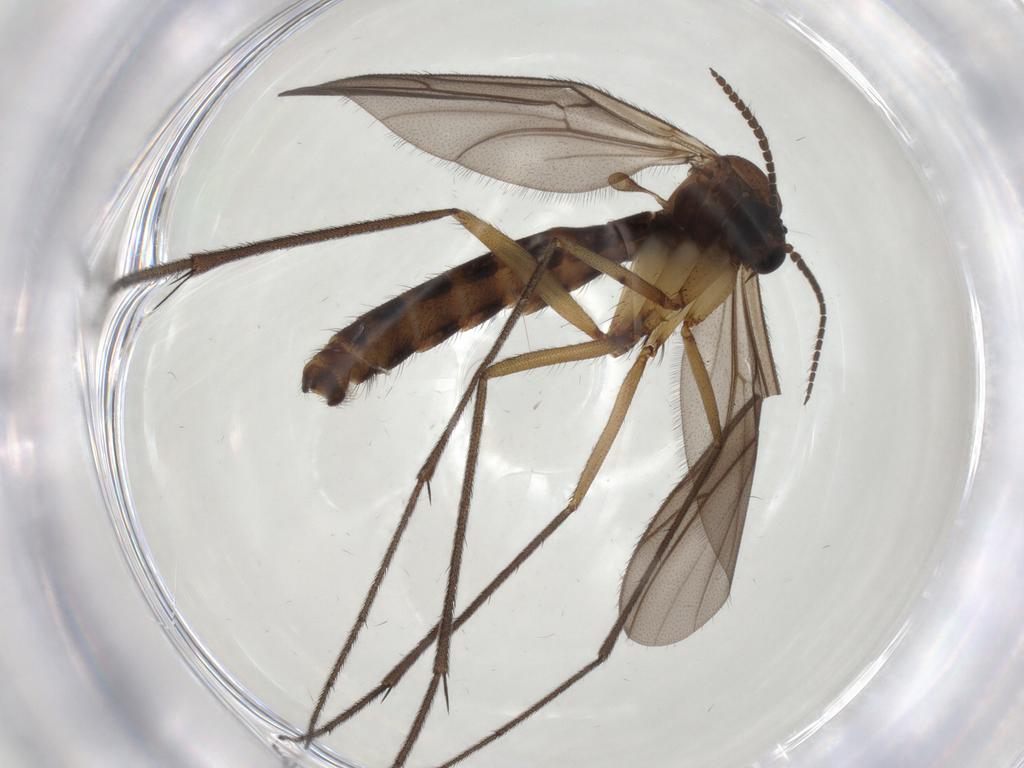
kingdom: Animalia
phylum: Arthropoda
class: Insecta
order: Diptera
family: Ditomyiidae
